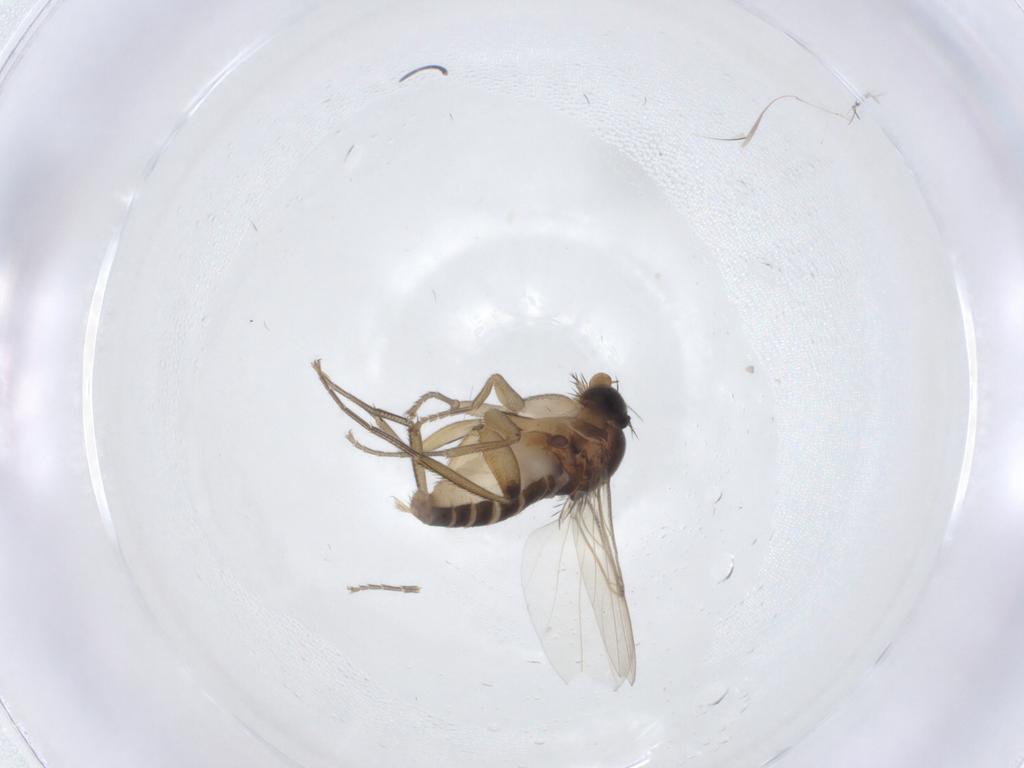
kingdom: Animalia
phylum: Arthropoda
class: Insecta
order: Diptera
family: Phoridae
